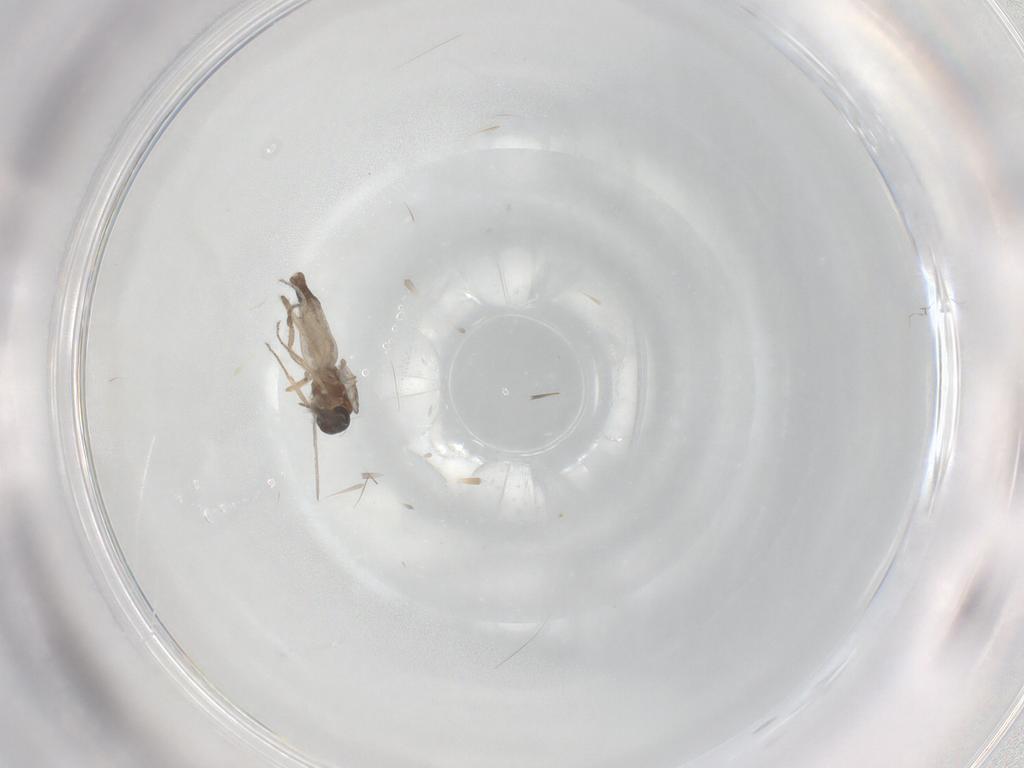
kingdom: Animalia
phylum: Arthropoda
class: Insecta
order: Diptera
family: Ceratopogonidae
